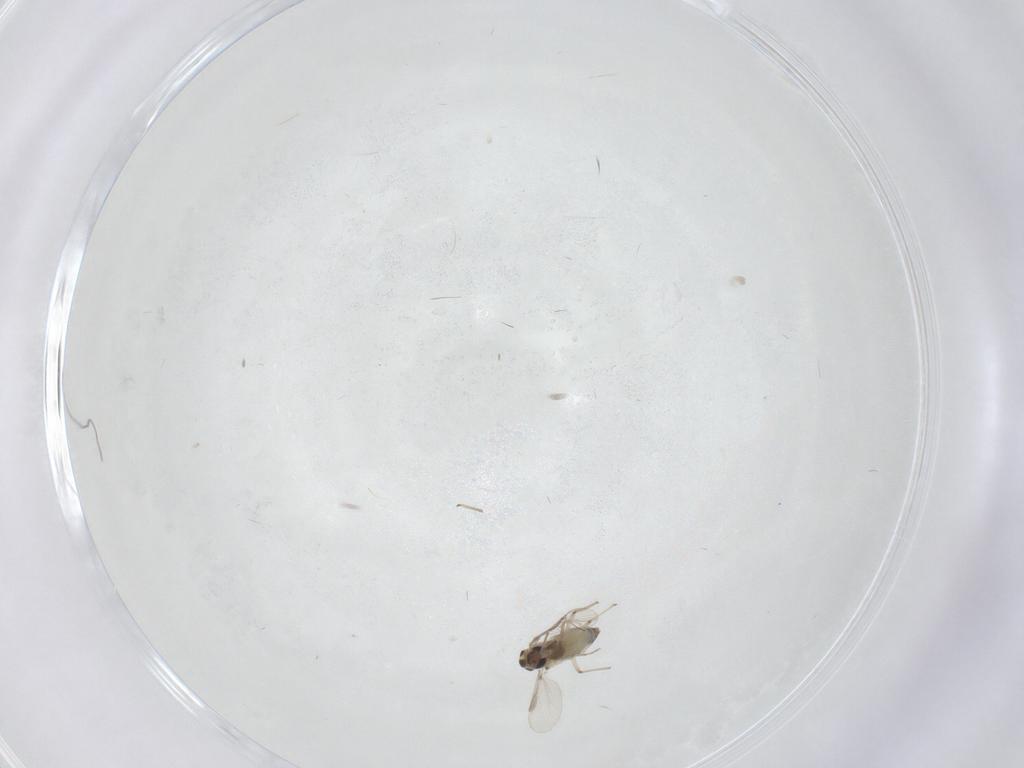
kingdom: Animalia
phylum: Arthropoda
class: Insecta
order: Diptera
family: Chironomidae
